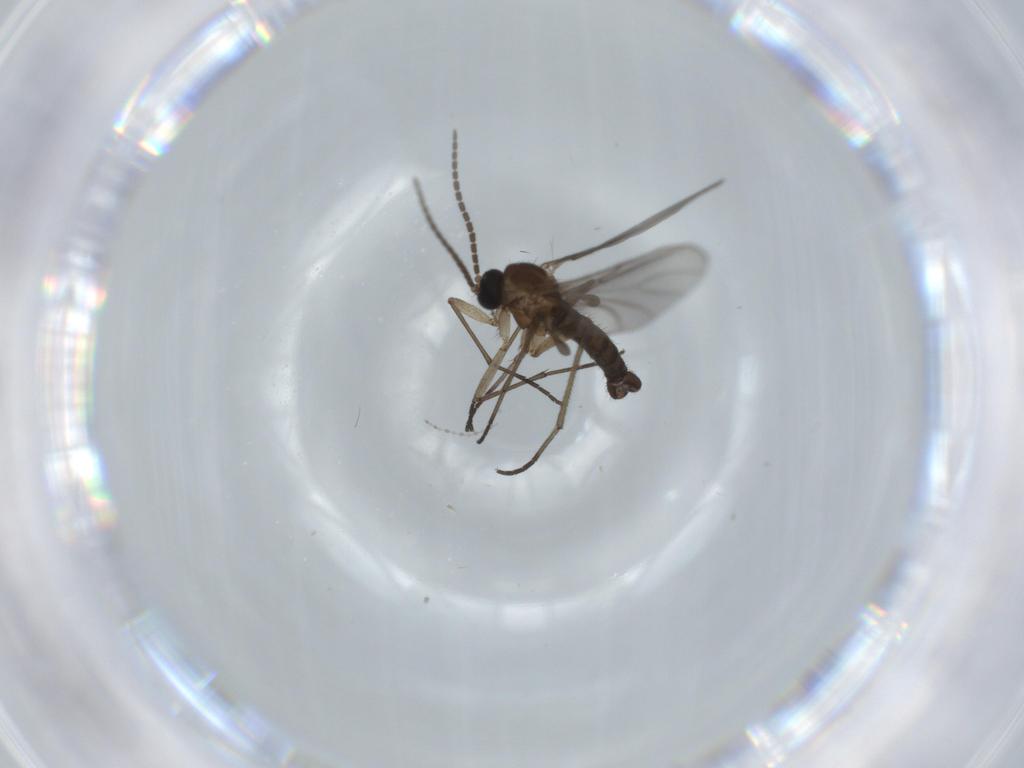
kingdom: Animalia
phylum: Arthropoda
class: Insecta
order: Diptera
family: Sciaridae
